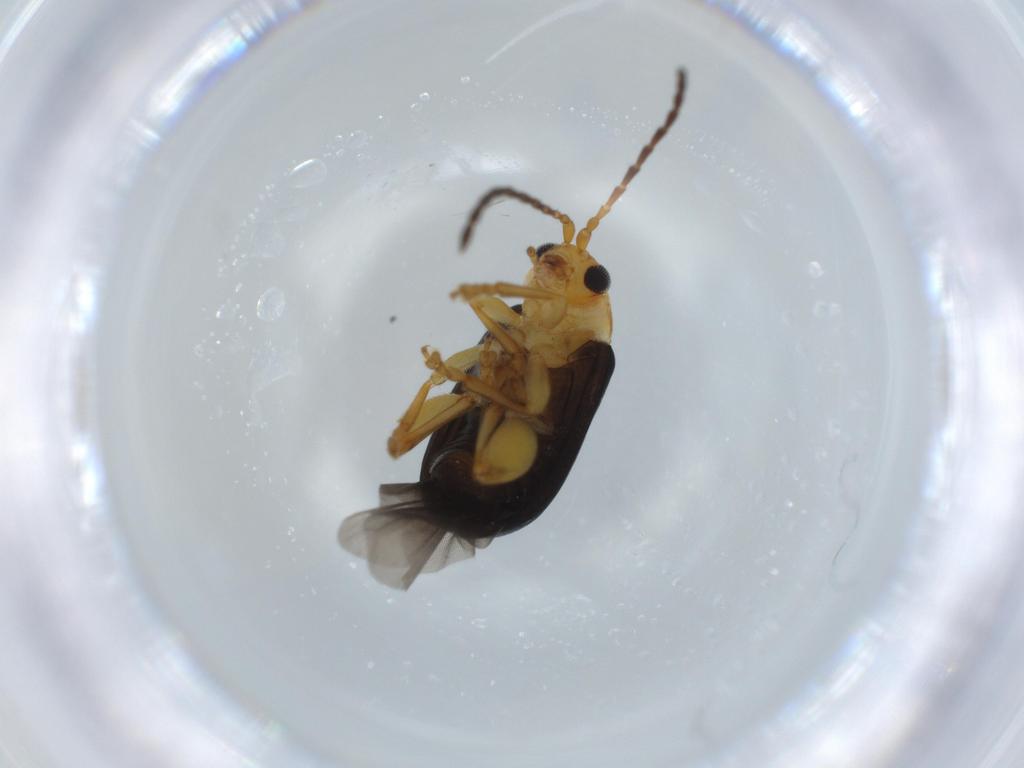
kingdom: Animalia
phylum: Arthropoda
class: Insecta
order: Coleoptera
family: Chrysomelidae
